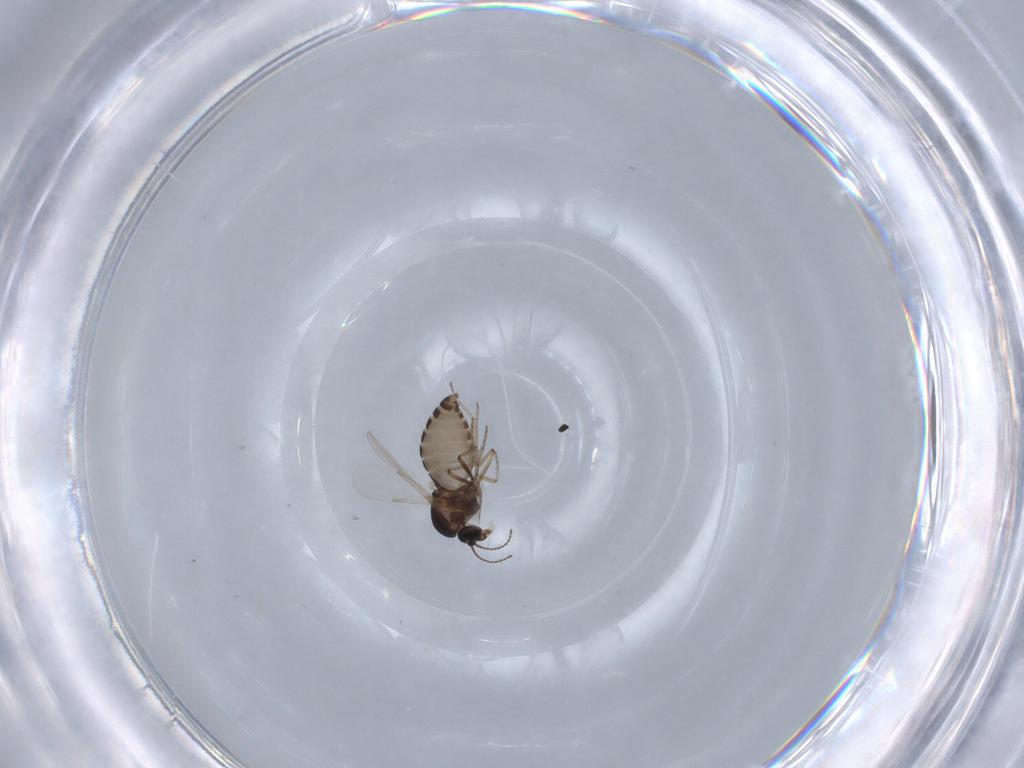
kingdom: Animalia
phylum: Arthropoda
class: Insecta
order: Diptera
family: Ceratopogonidae
